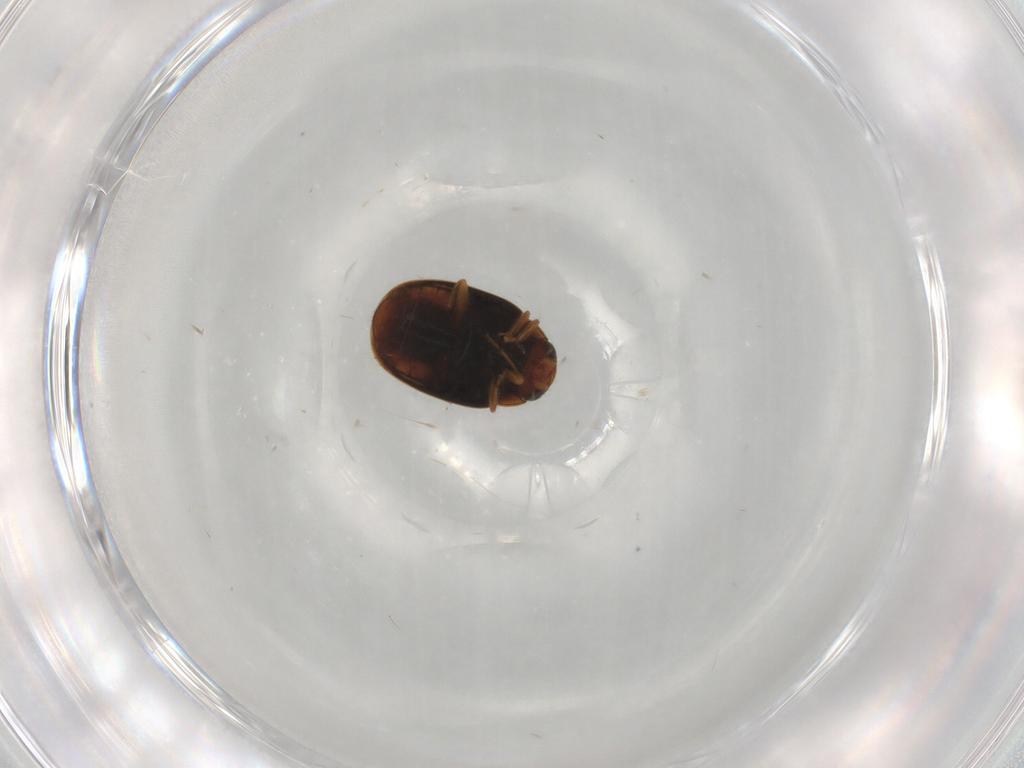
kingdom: Animalia
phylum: Arthropoda
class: Insecta
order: Coleoptera
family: Coccinellidae
